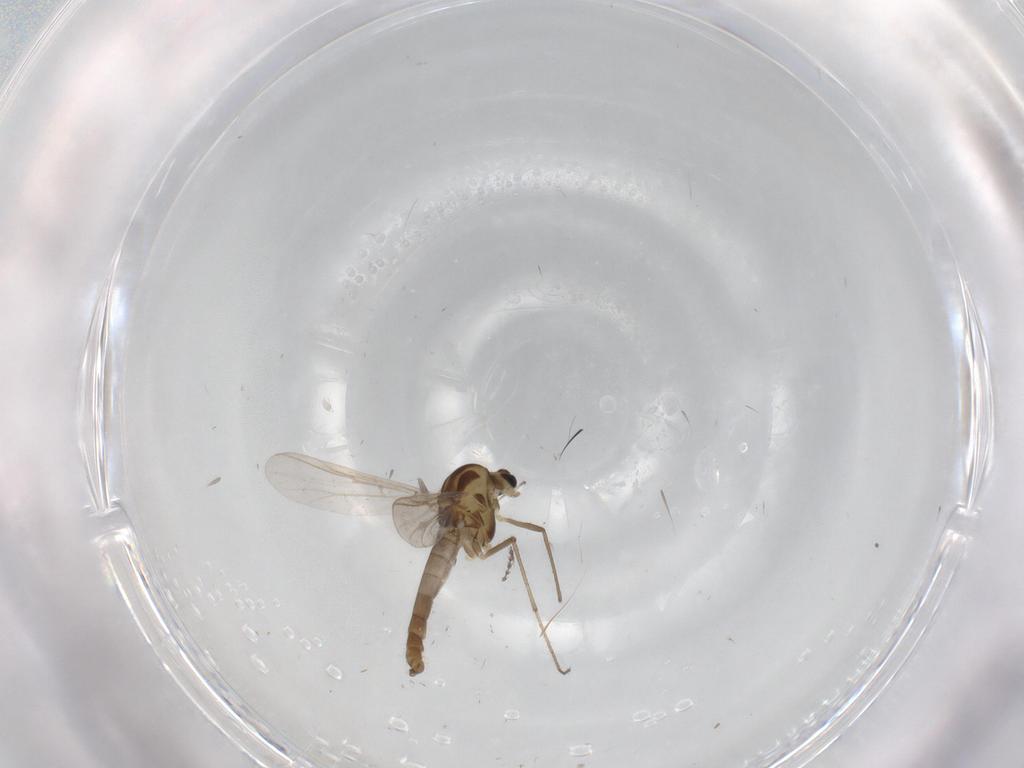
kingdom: Animalia
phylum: Arthropoda
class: Insecta
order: Diptera
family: Chironomidae
